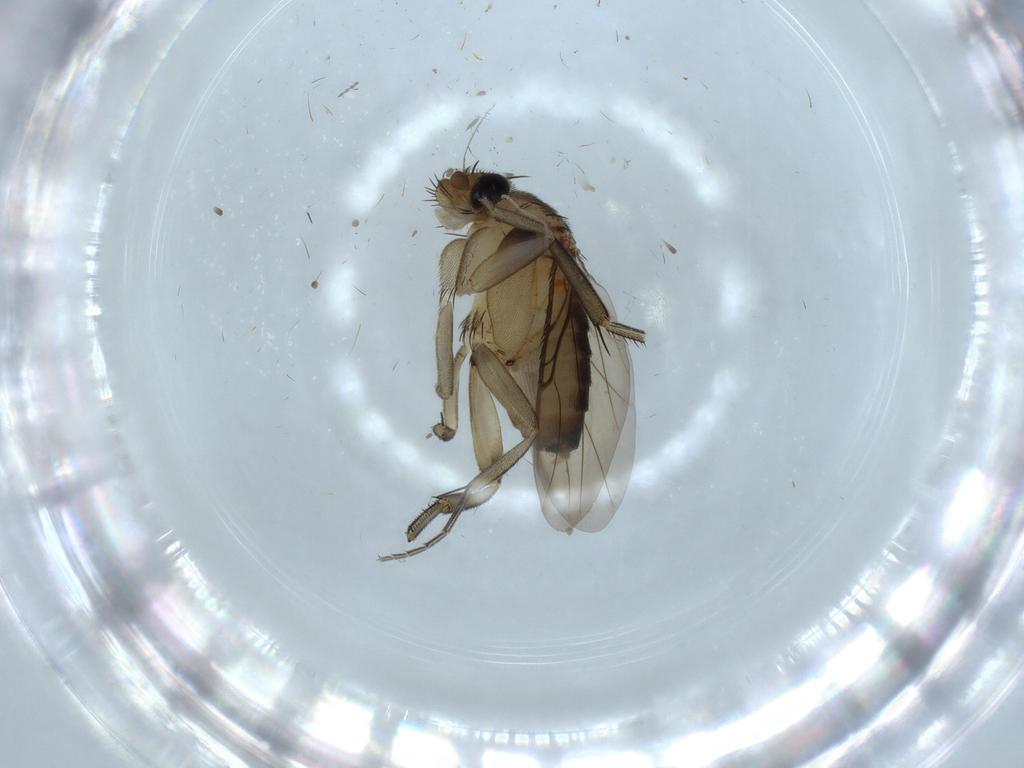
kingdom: Animalia
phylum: Arthropoda
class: Insecta
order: Diptera
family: Phoridae
